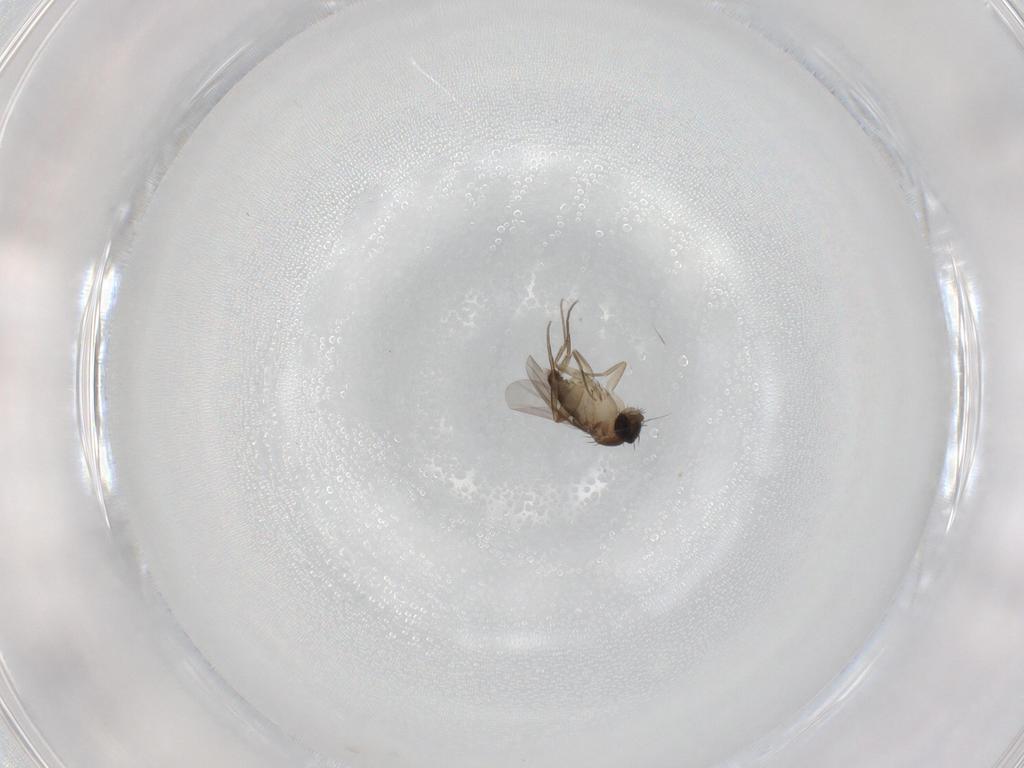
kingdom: Animalia
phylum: Arthropoda
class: Insecta
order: Diptera
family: Phoridae
